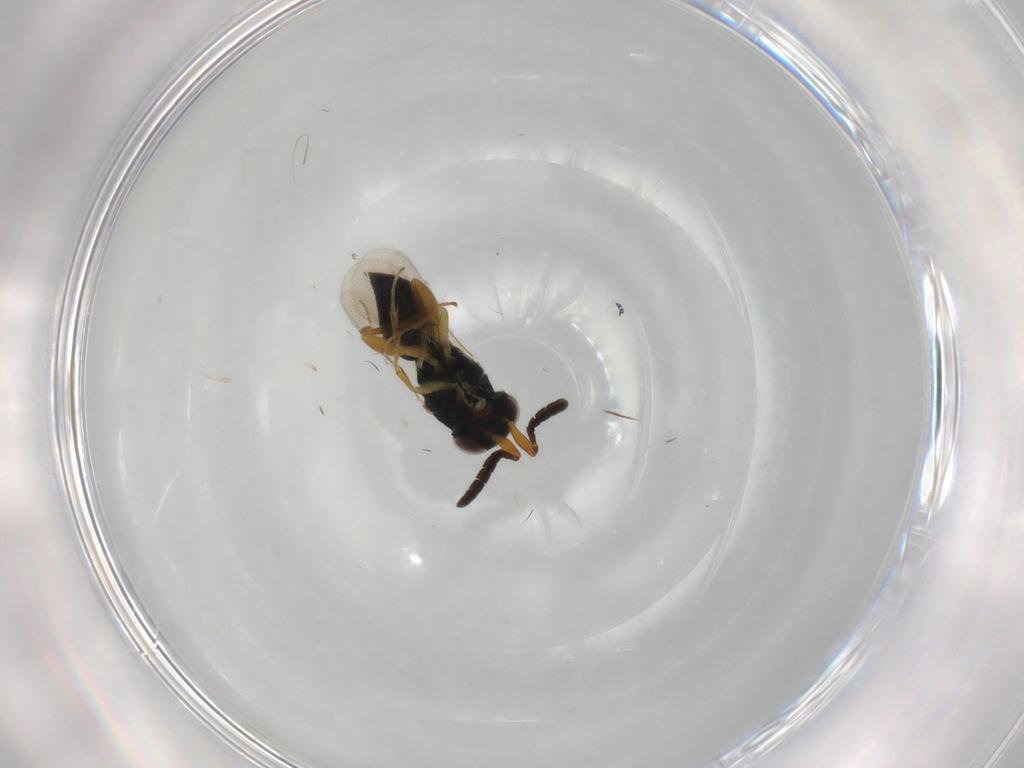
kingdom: Animalia
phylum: Arthropoda
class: Insecta
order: Hymenoptera
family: Megaspilidae
